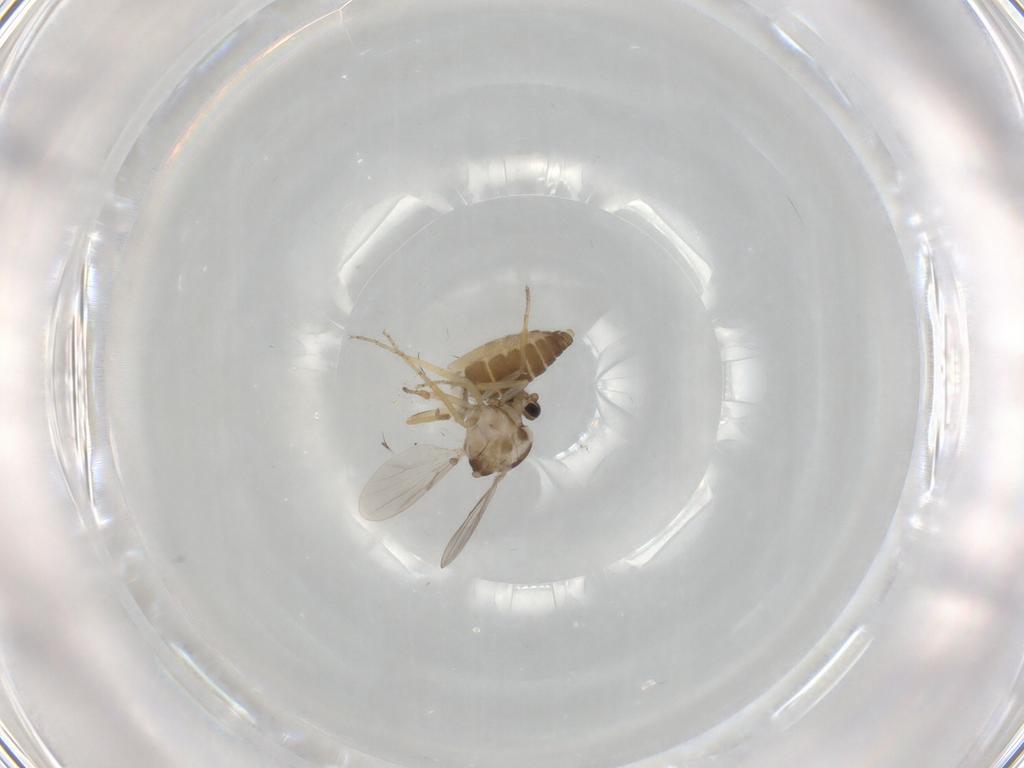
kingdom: Animalia
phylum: Arthropoda
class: Insecta
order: Diptera
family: Ceratopogonidae
